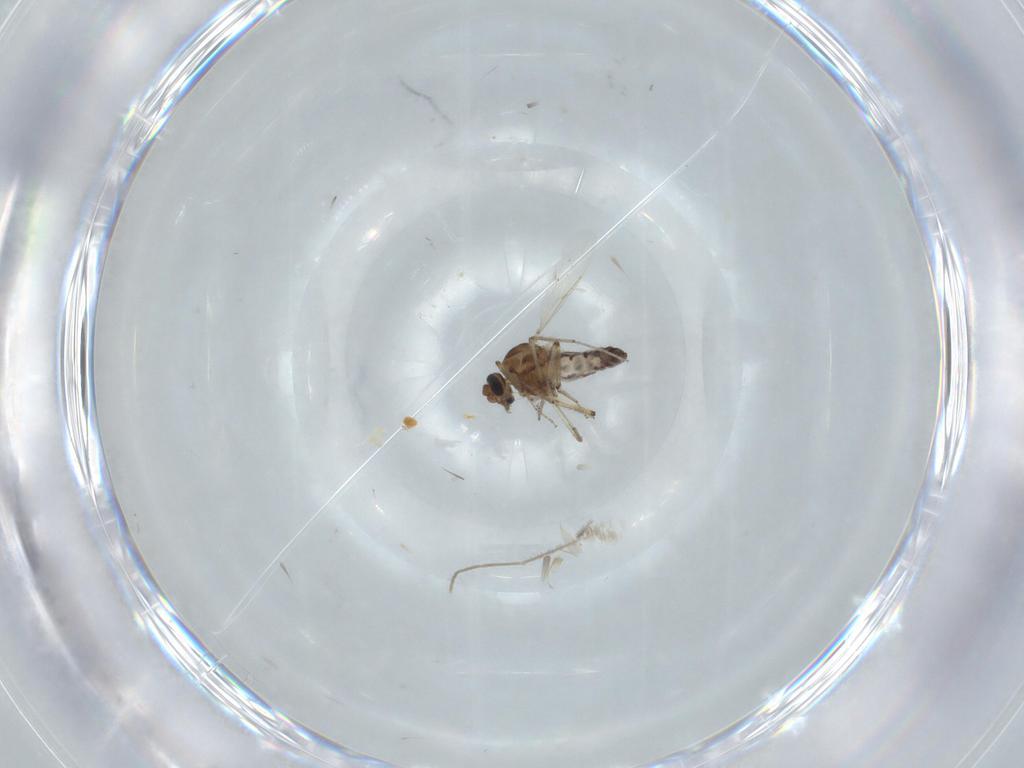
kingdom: Animalia
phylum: Arthropoda
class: Insecta
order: Diptera
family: Ceratopogonidae
